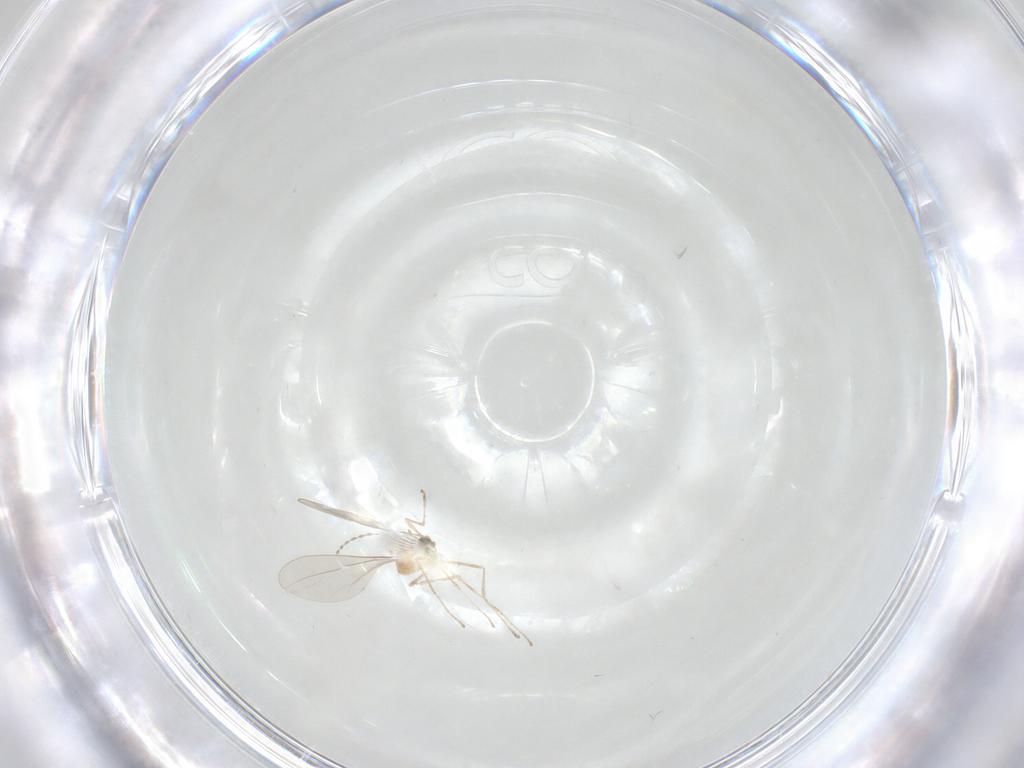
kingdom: Animalia
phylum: Arthropoda
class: Insecta
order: Diptera
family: Cecidomyiidae
